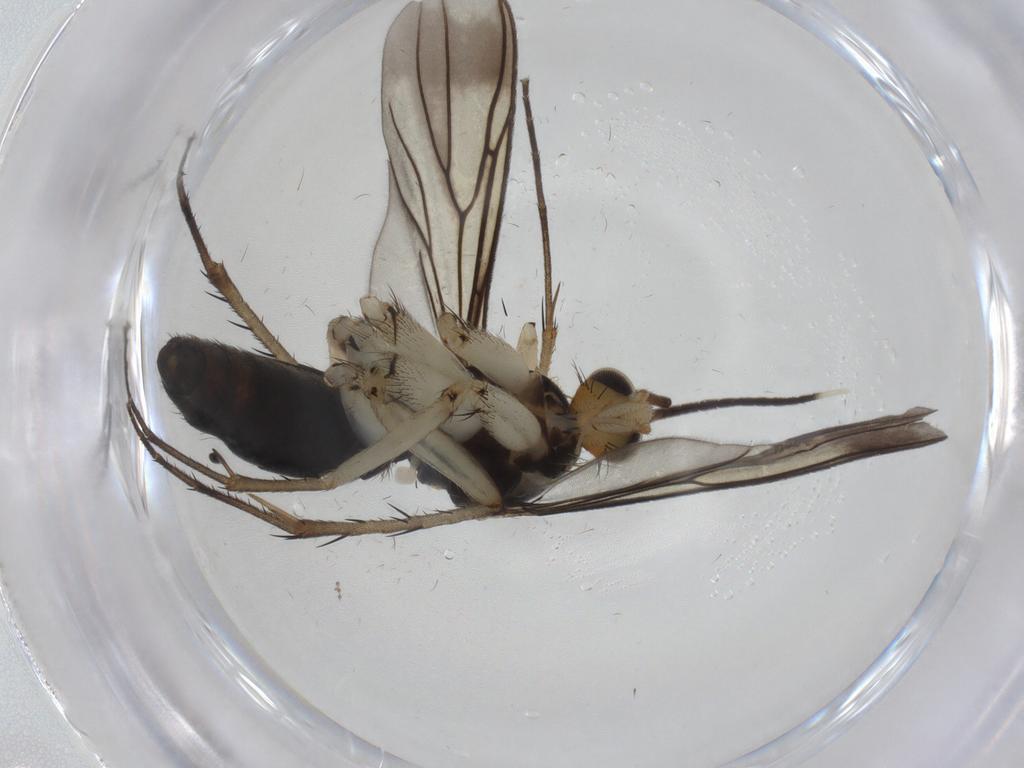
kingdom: Animalia
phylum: Arthropoda
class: Insecta
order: Diptera
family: Mycetophilidae
